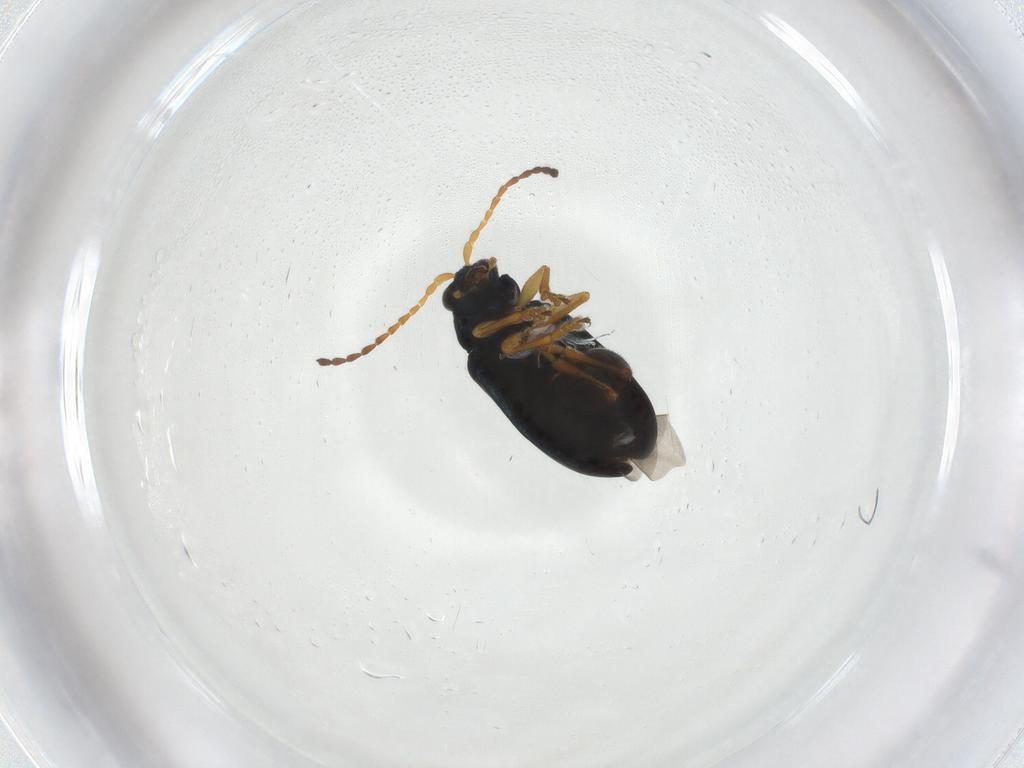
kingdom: Animalia
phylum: Arthropoda
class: Insecta
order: Coleoptera
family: Chrysomelidae
